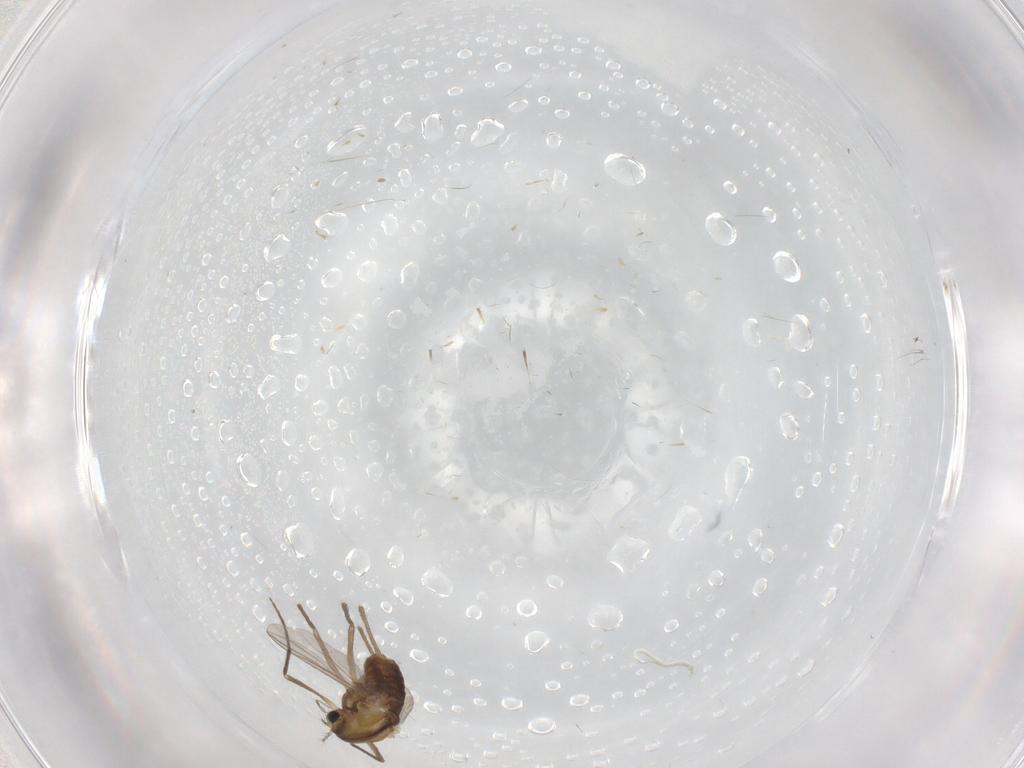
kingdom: Animalia
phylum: Arthropoda
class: Insecta
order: Diptera
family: Chironomidae
